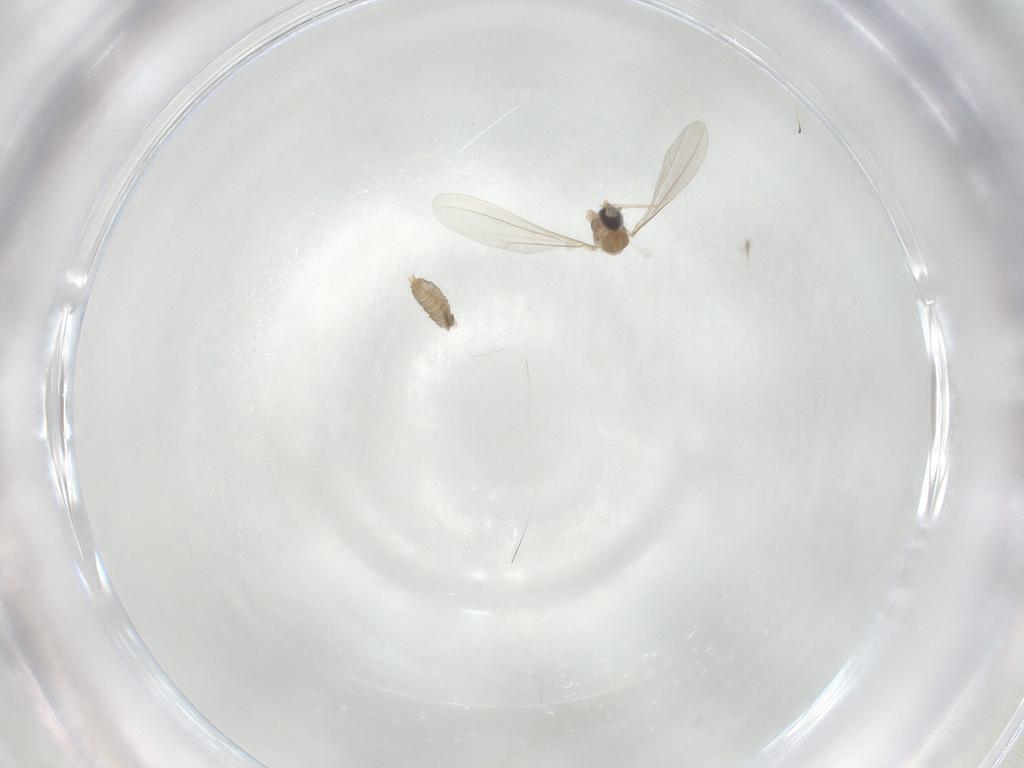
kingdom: Animalia
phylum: Arthropoda
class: Insecta
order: Diptera
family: Cecidomyiidae
